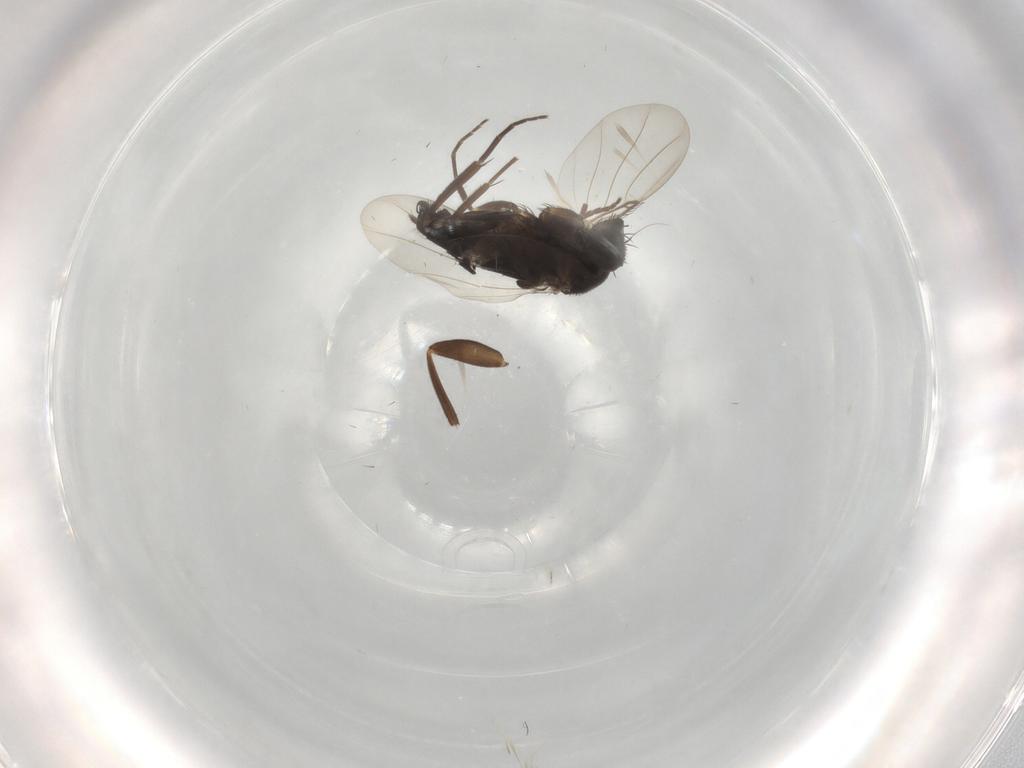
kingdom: Animalia
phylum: Arthropoda
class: Insecta
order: Diptera
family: Phoridae
